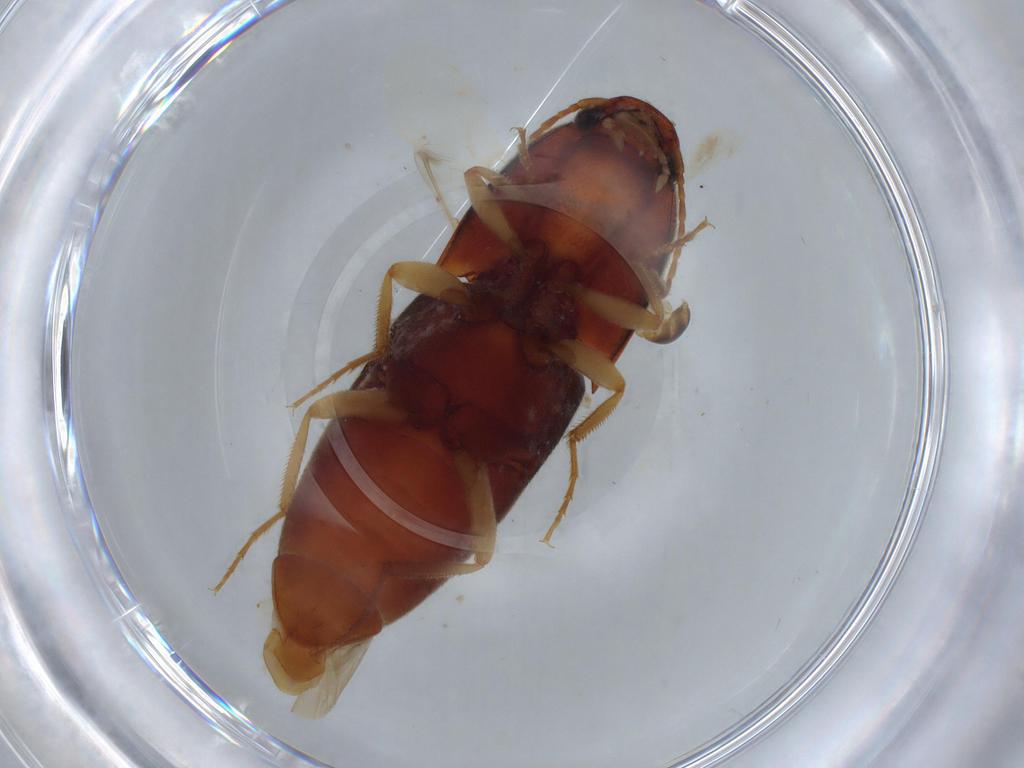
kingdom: Animalia
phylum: Arthropoda
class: Insecta
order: Coleoptera
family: Elateridae
